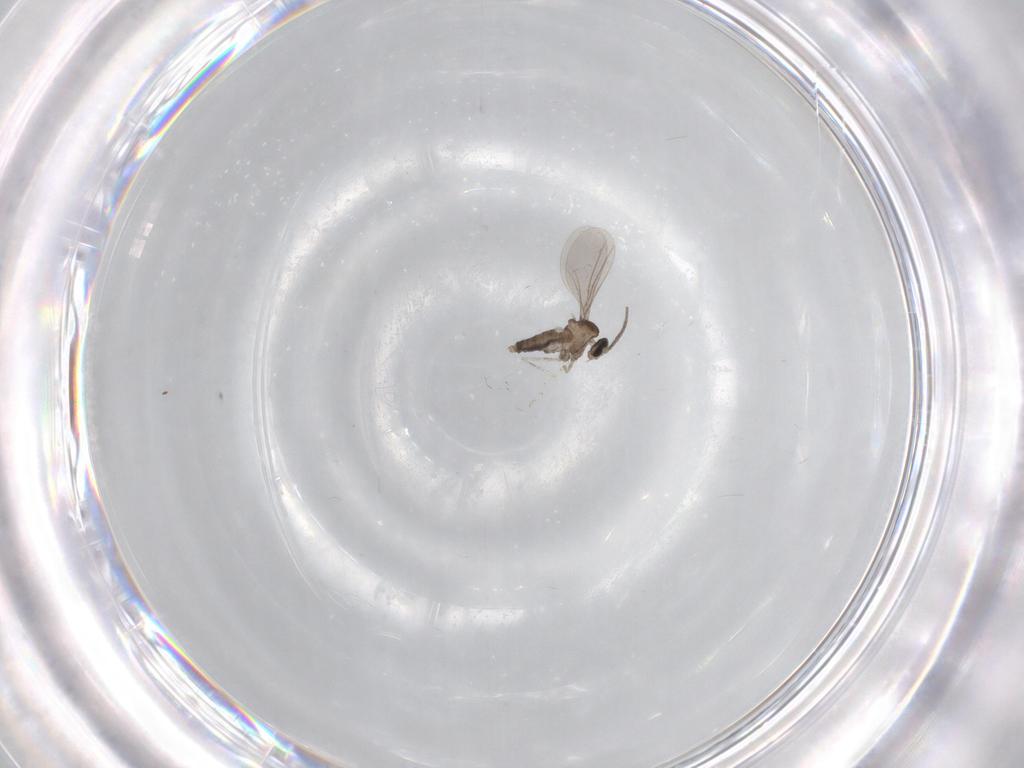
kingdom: Animalia
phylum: Arthropoda
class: Insecta
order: Diptera
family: Cecidomyiidae
